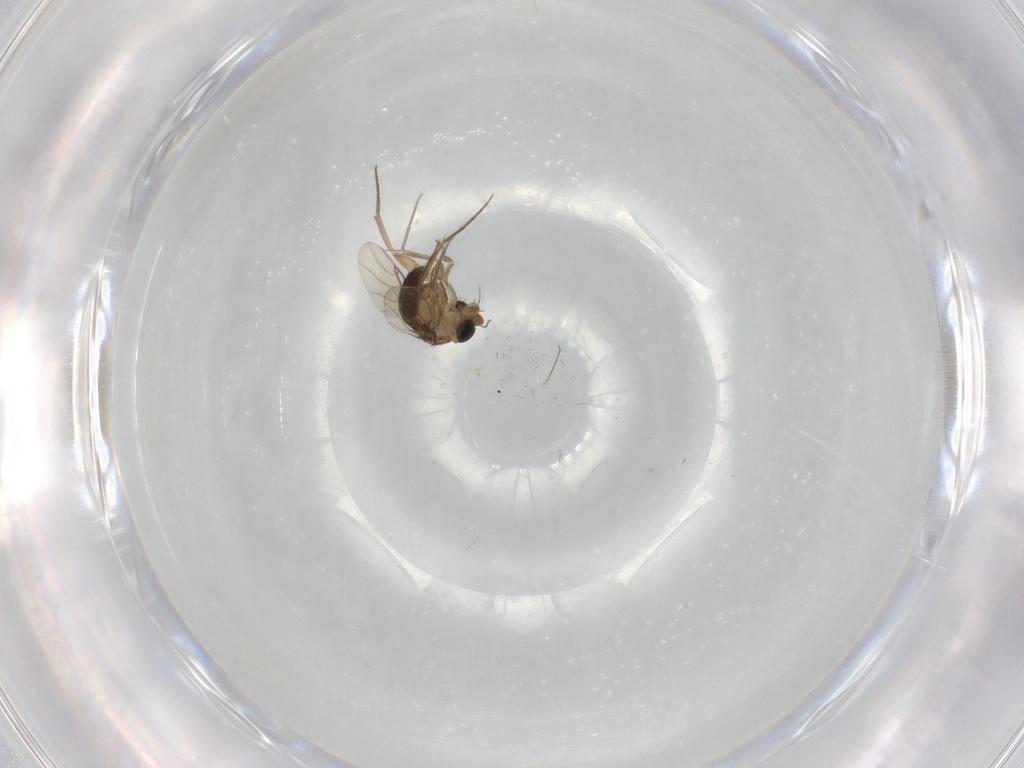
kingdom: Animalia
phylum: Arthropoda
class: Insecta
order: Diptera
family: Phoridae
